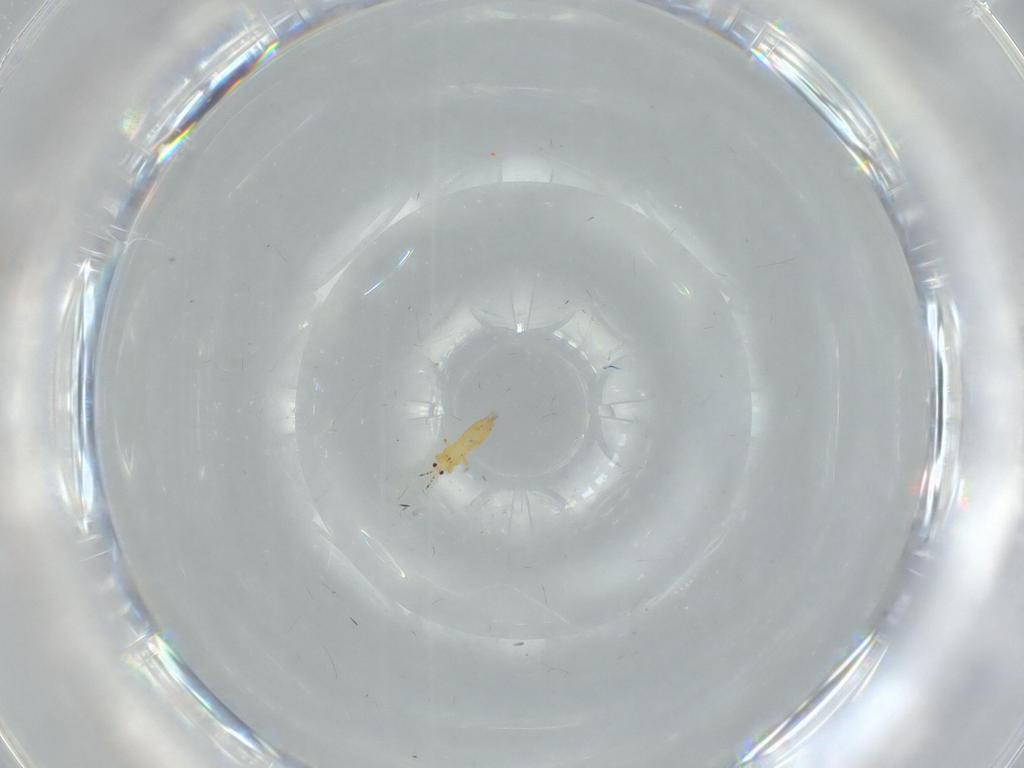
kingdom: Animalia
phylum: Arthropoda
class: Insecta
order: Thysanoptera
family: Thripidae
